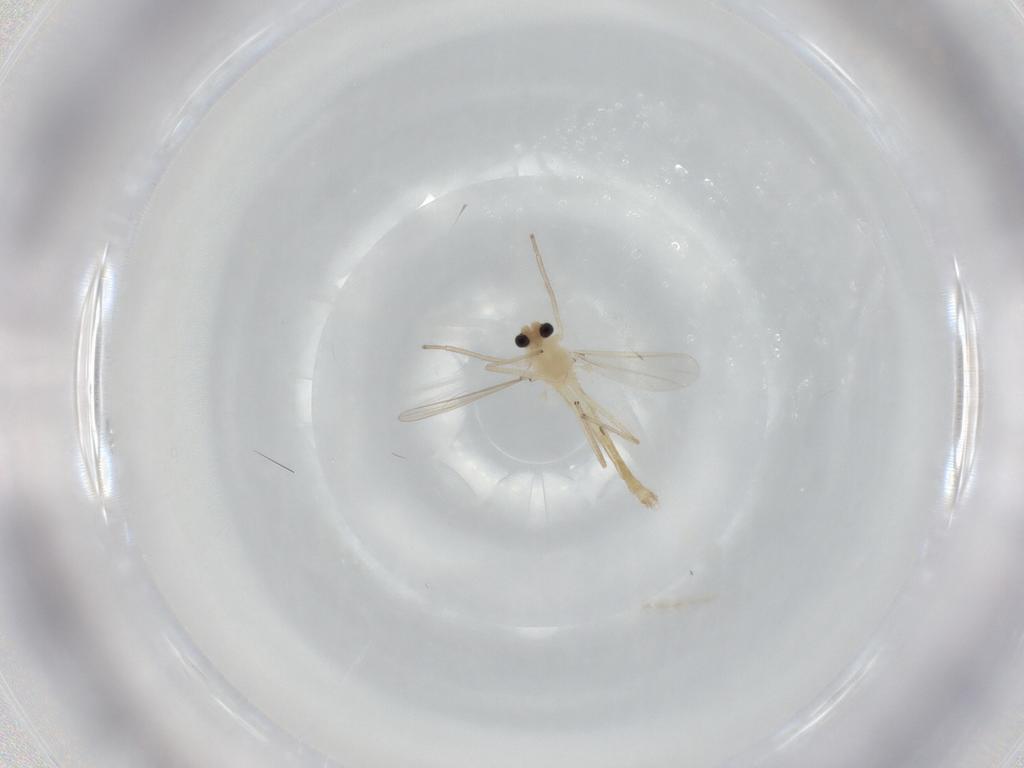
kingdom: Animalia
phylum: Arthropoda
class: Insecta
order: Diptera
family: Chironomidae
